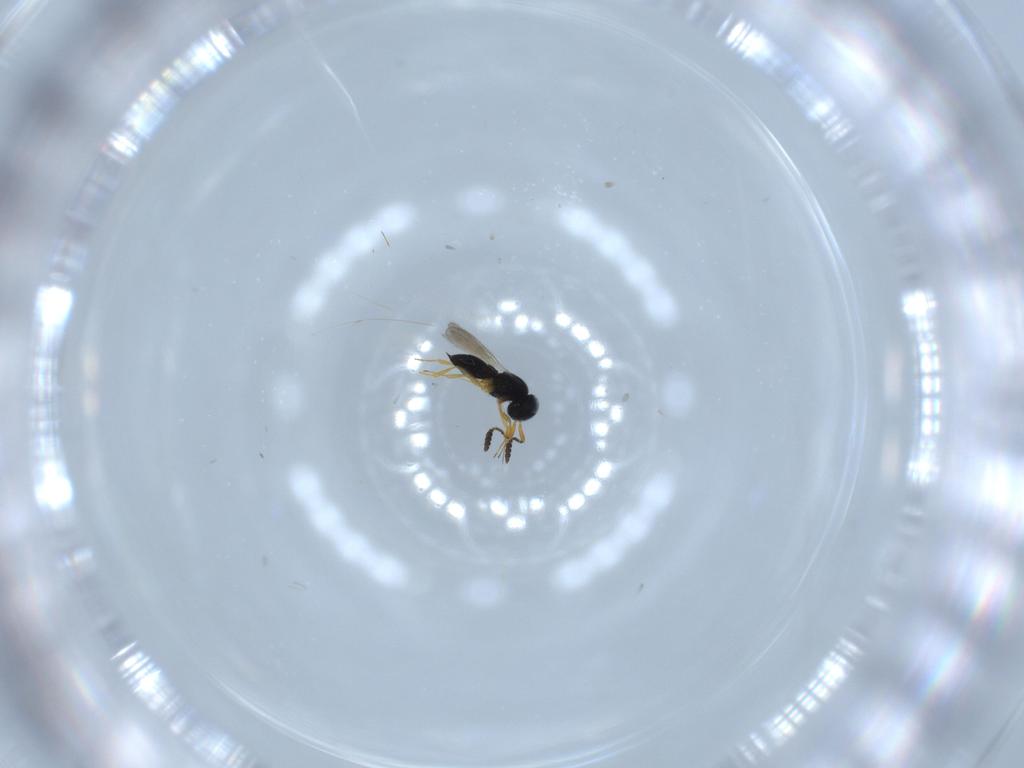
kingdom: Animalia
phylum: Arthropoda
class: Insecta
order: Hymenoptera
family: Scelionidae
